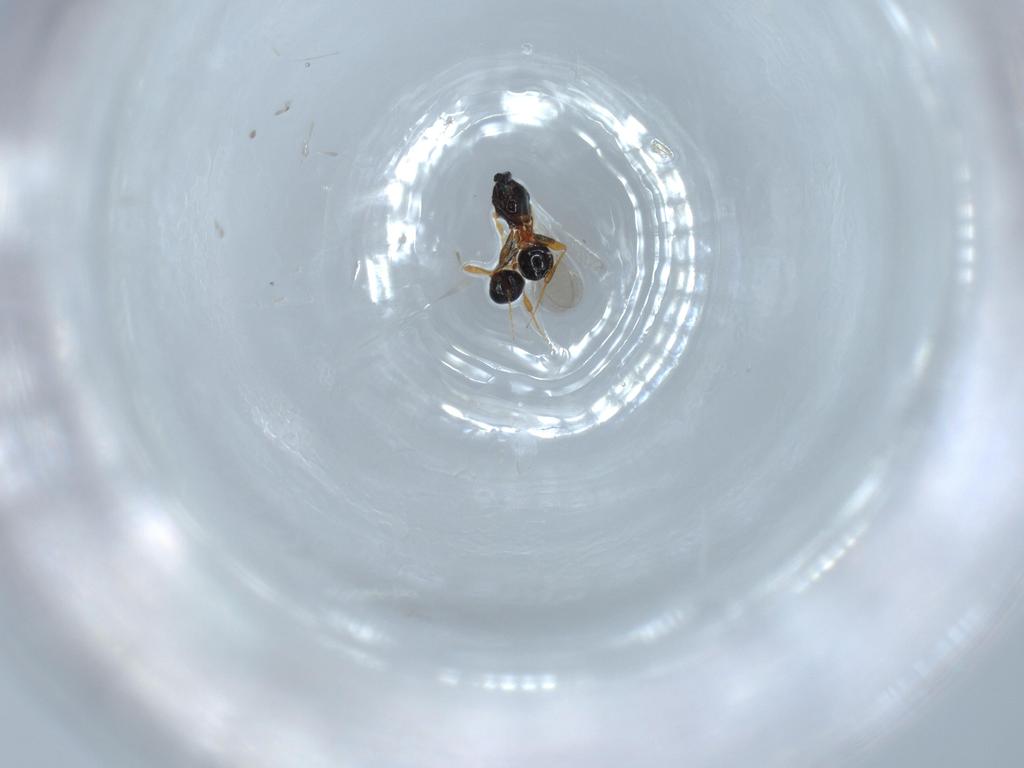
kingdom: Animalia
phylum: Arthropoda
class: Insecta
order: Hymenoptera
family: Platygastridae
